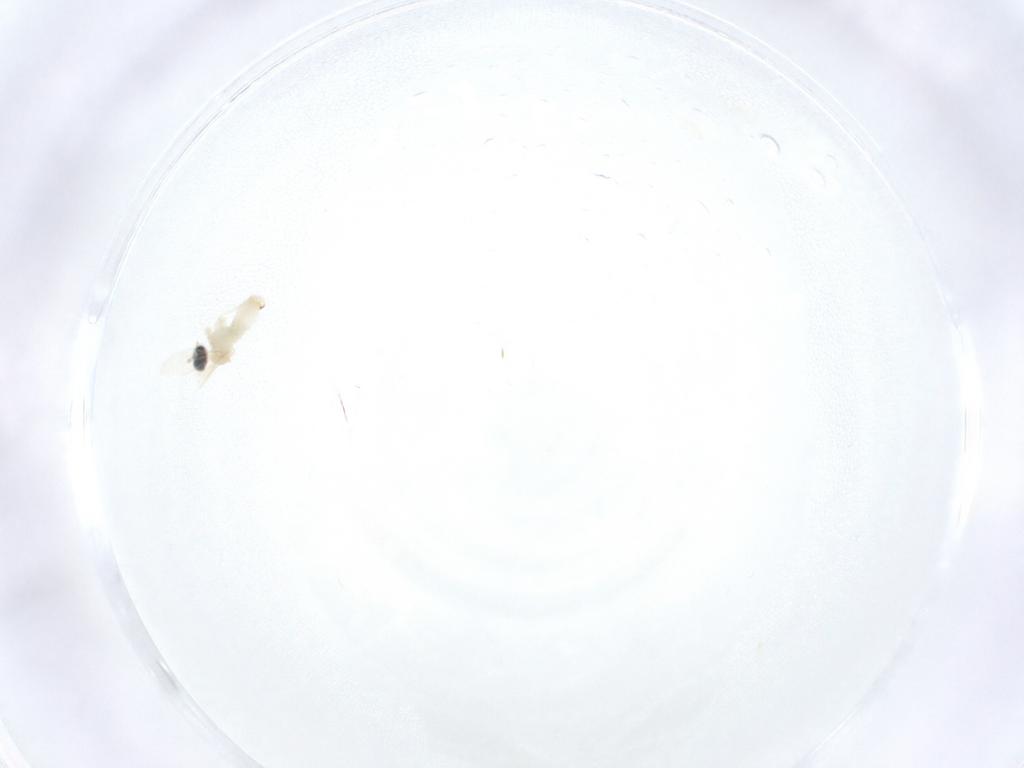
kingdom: Animalia
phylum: Arthropoda
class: Insecta
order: Diptera
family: Cecidomyiidae
